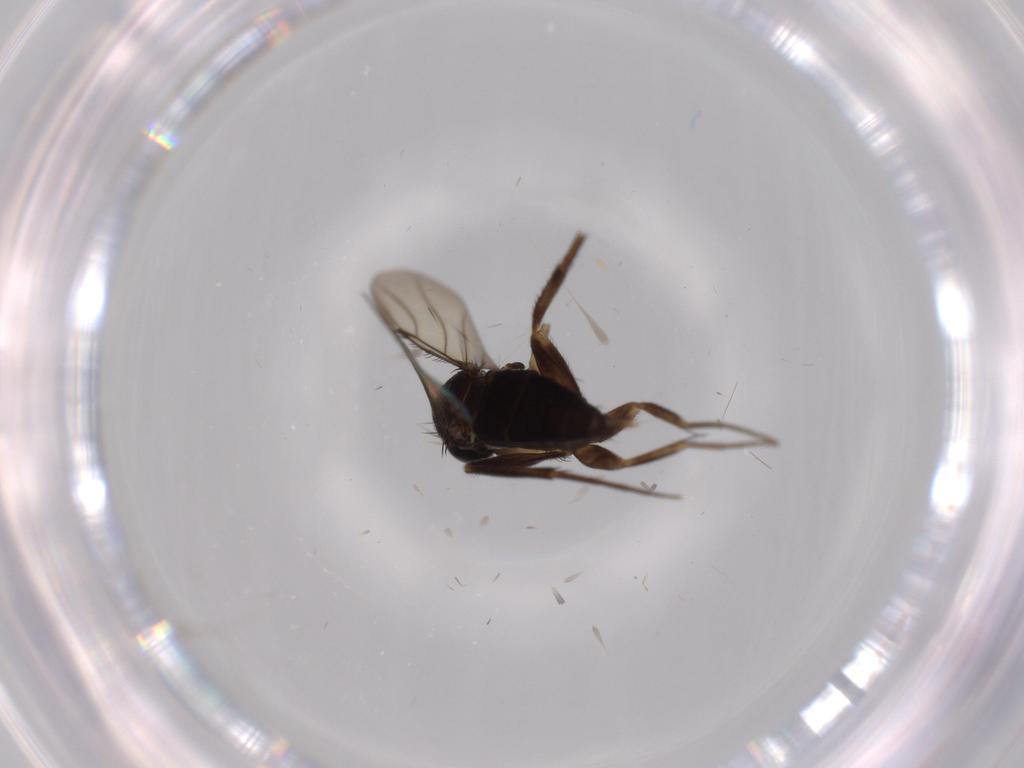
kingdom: Animalia
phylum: Arthropoda
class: Insecta
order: Diptera
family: Phoridae
